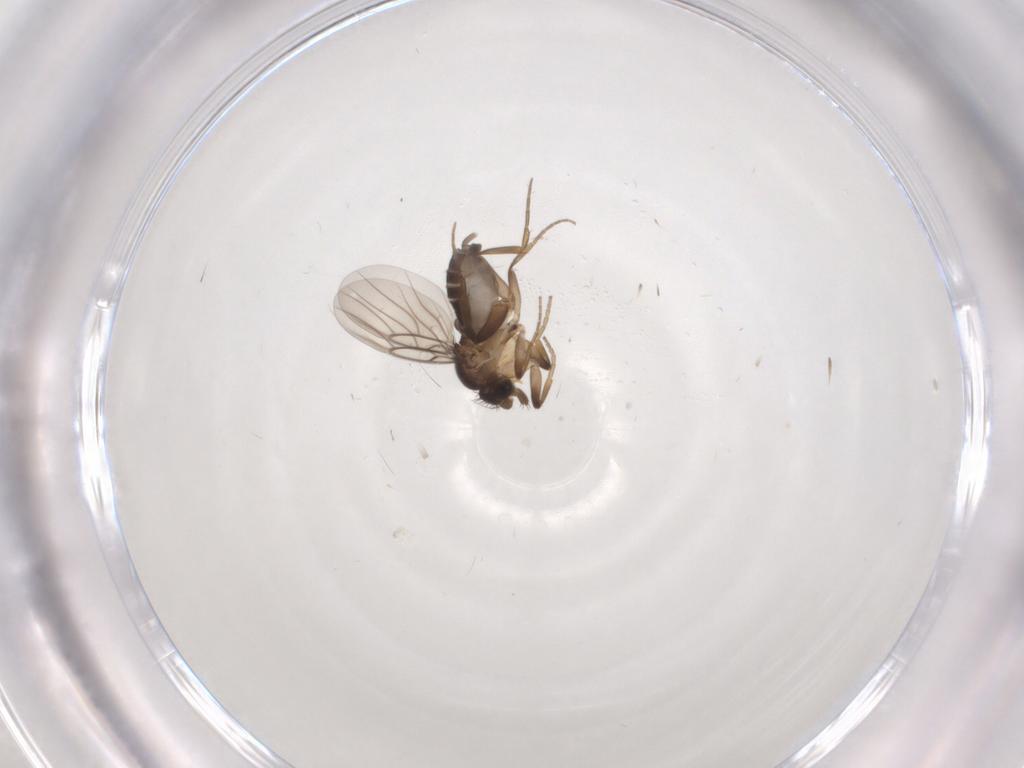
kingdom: Animalia
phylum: Arthropoda
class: Insecta
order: Diptera
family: Phoridae
